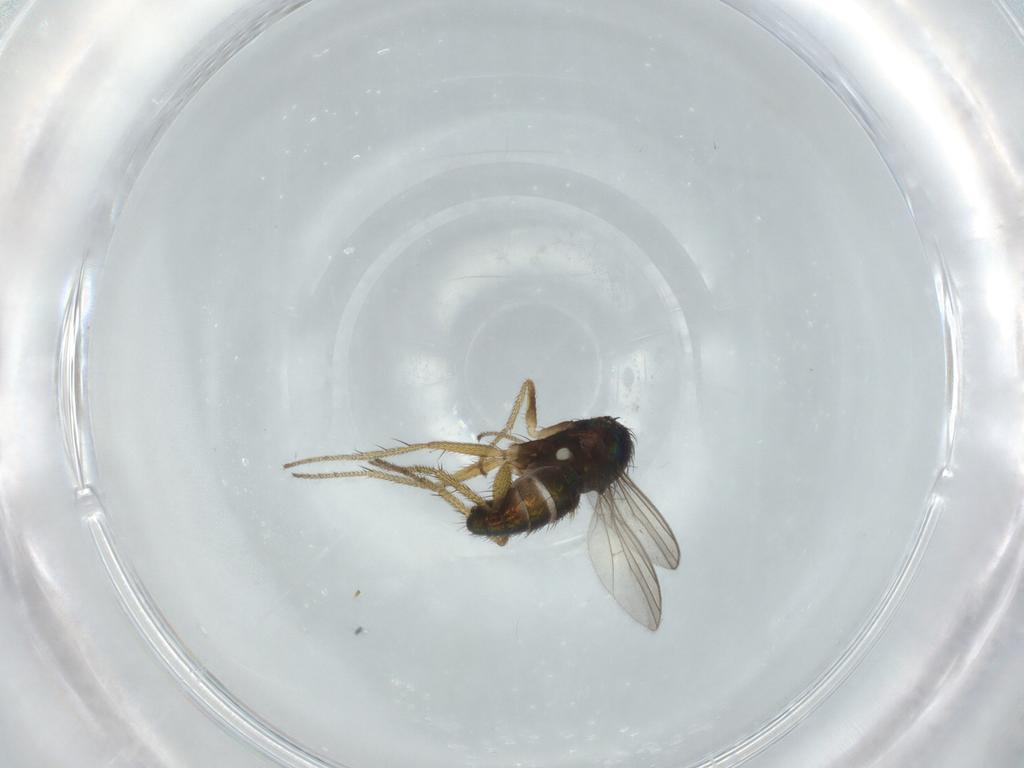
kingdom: Animalia
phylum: Arthropoda
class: Insecta
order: Diptera
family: Dolichopodidae
